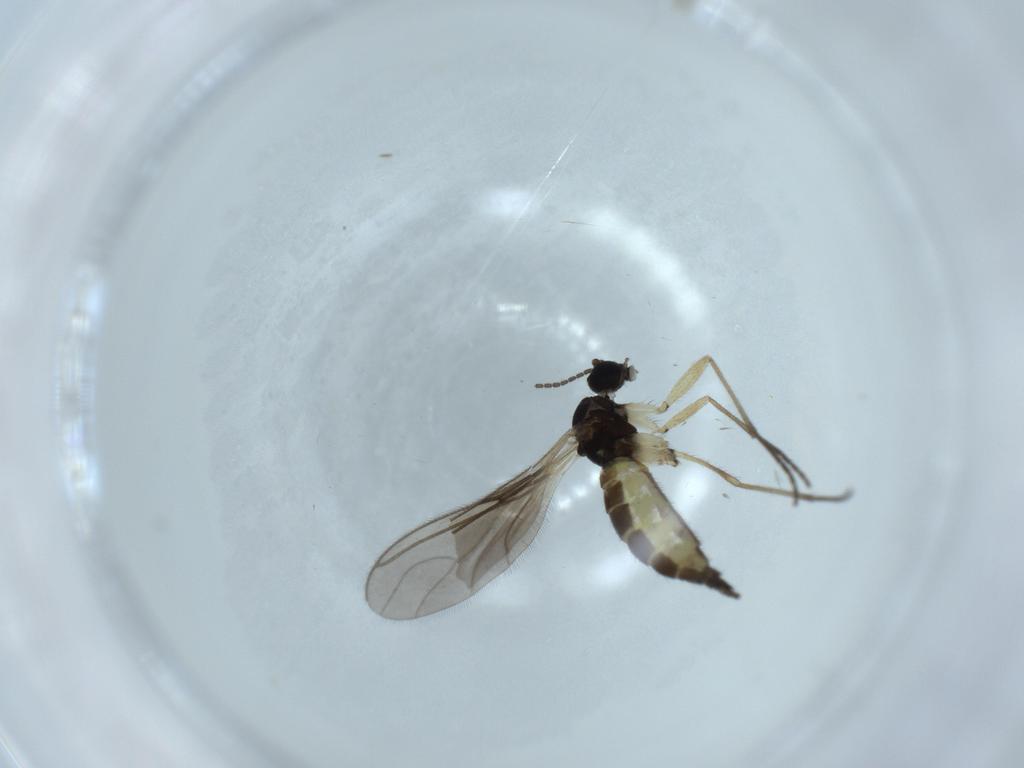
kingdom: Animalia
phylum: Arthropoda
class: Insecta
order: Diptera
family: Sciaridae
